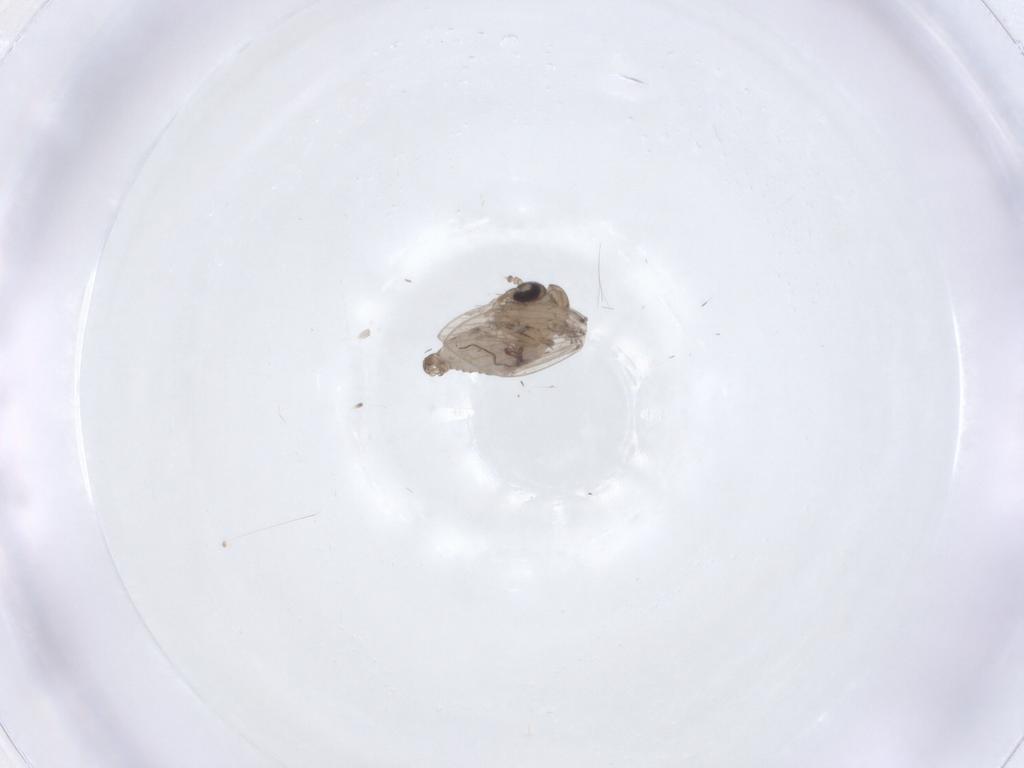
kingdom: Animalia
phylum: Arthropoda
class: Insecta
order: Diptera
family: Psychodidae
